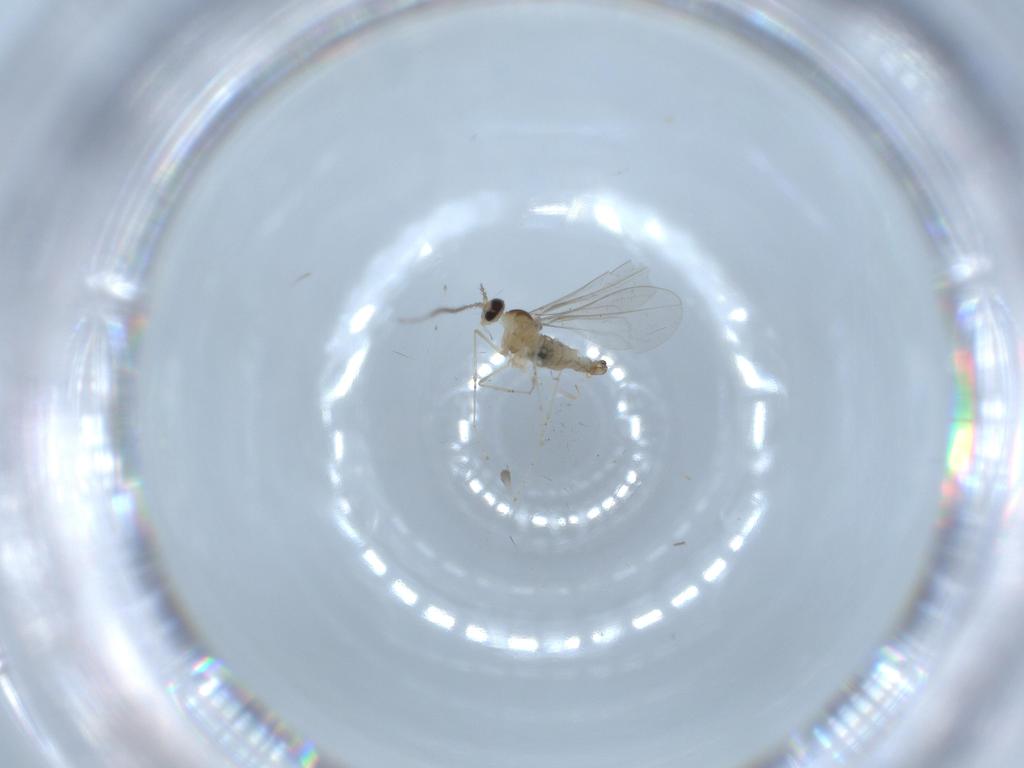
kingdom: Animalia
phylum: Arthropoda
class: Insecta
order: Diptera
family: Cecidomyiidae
